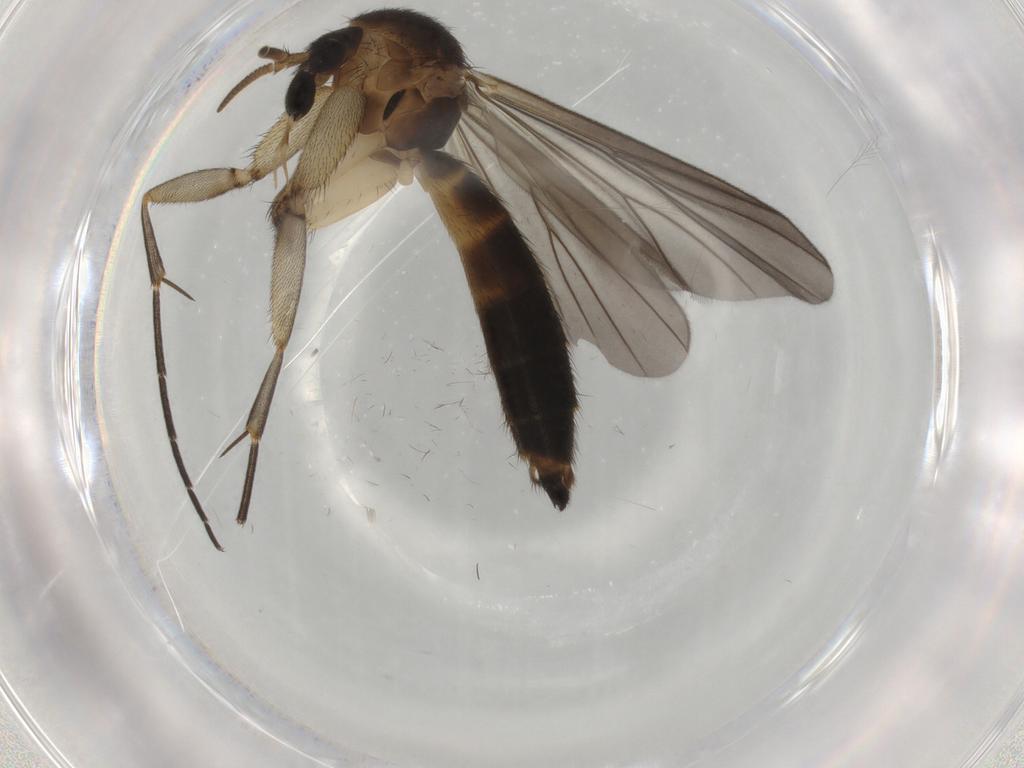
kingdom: Animalia
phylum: Arthropoda
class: Insecta
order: Diptera
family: Mycetophilidae
